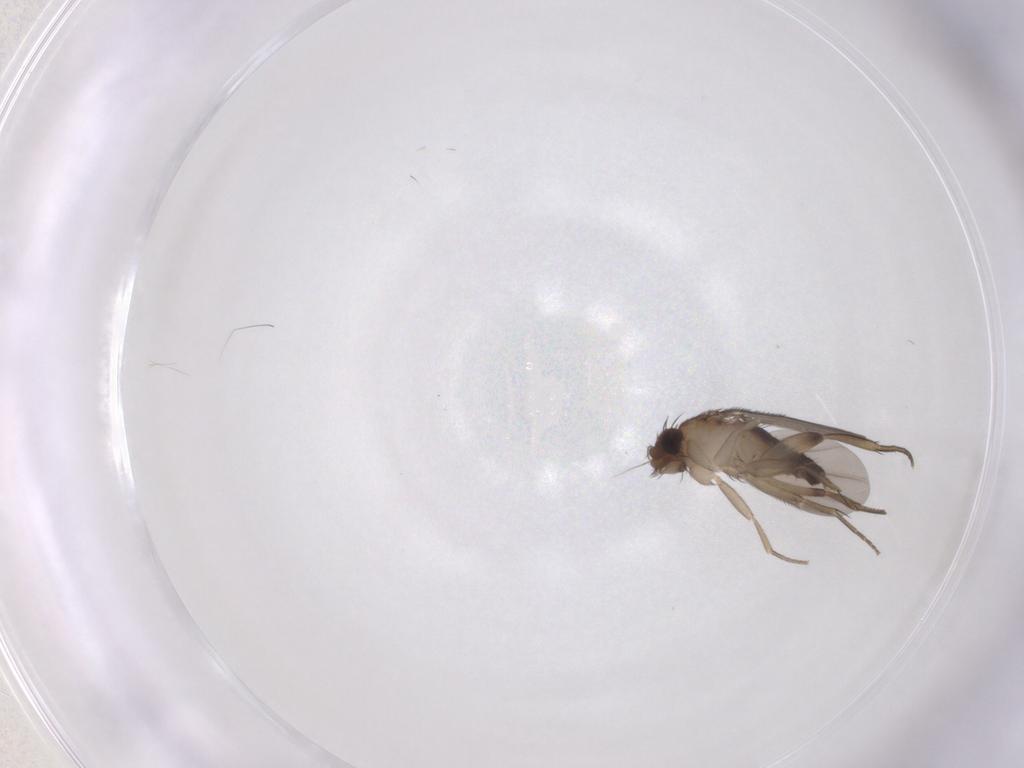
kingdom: Animalia
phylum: Arthropoda
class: Insecta
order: Diptera
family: Phoridae
